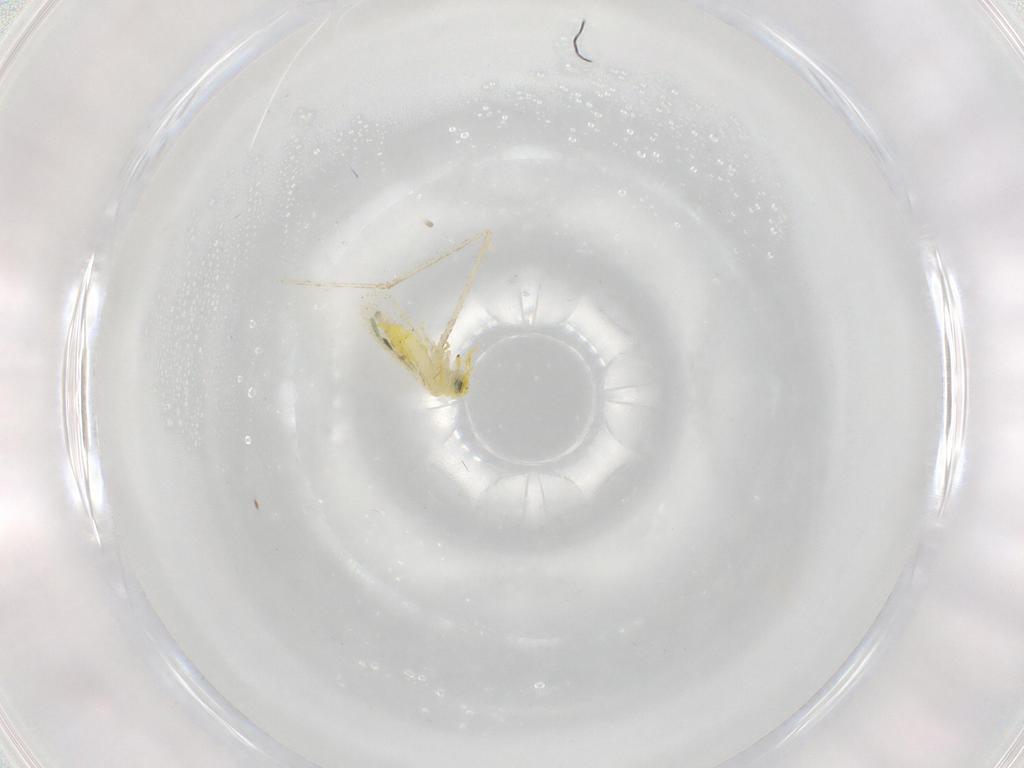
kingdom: Animalia
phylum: Arthropoda
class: Insecta
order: Hemiptera
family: Aleyrodidae
